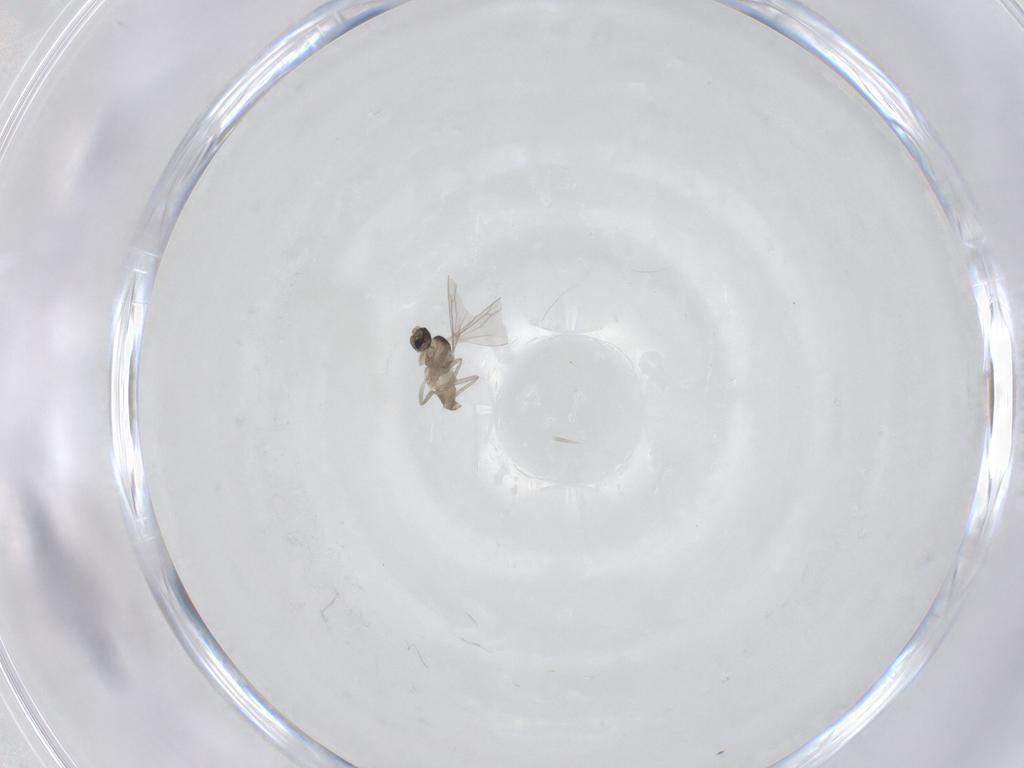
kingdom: Animalia
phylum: Arthropoda
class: Insecta
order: Diptera
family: Cecidomyiidae
